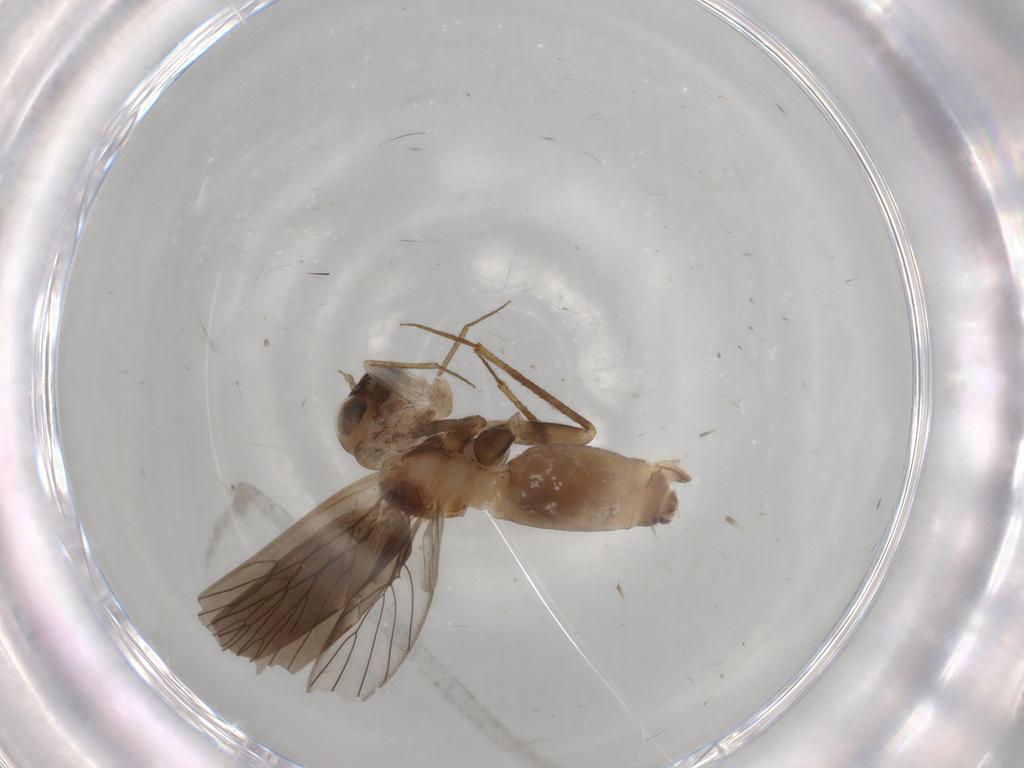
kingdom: Animalia
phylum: Arthropoda
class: Insecta
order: Psocodea
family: Lepidopsocidae
